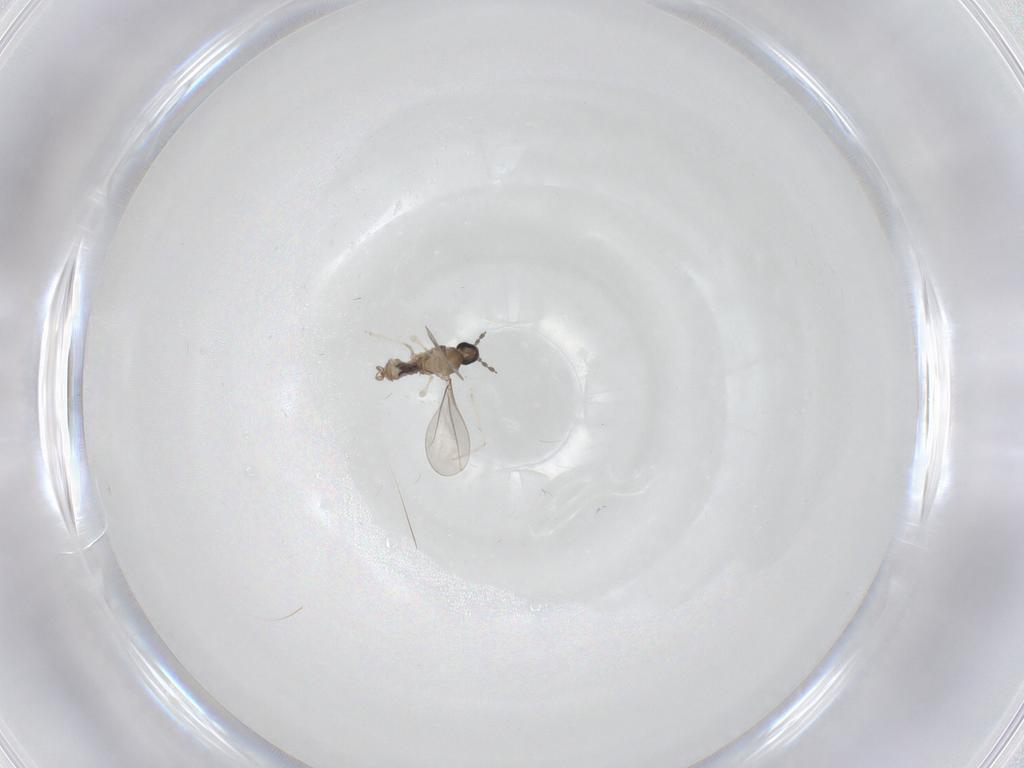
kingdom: Animalia
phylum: Arthropoda
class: Insecta
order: Diptera
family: Cecidomyiidae
